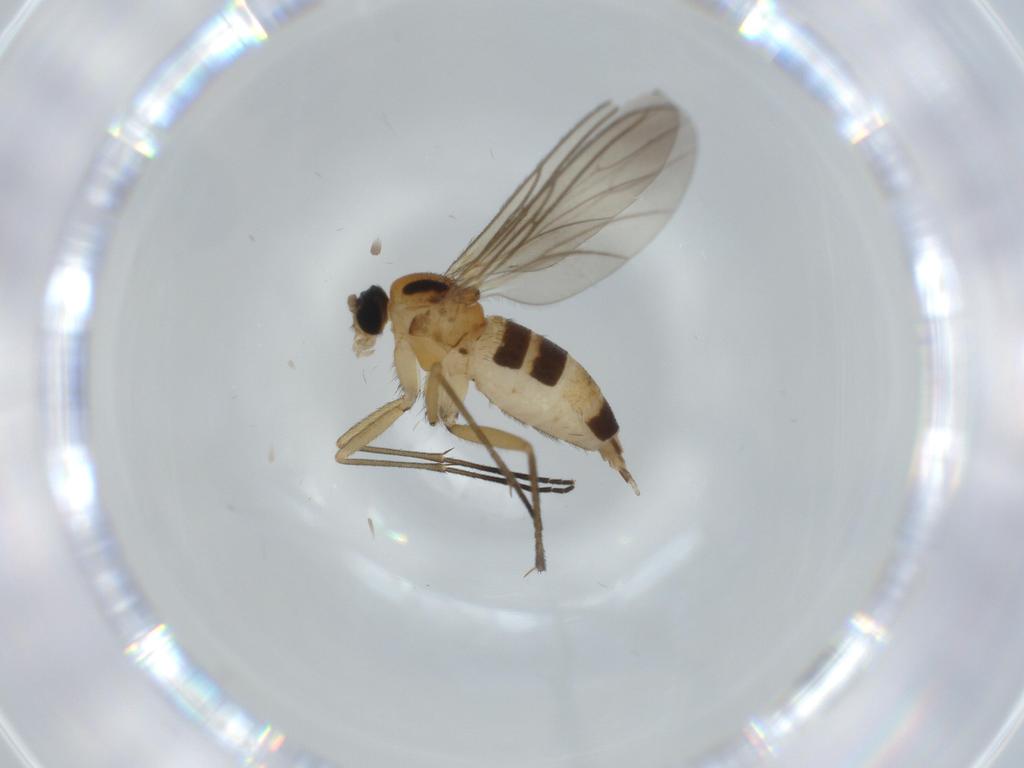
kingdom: Animalia
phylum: Arthropoda
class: Insecta
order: Diptera
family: Sciaridae
